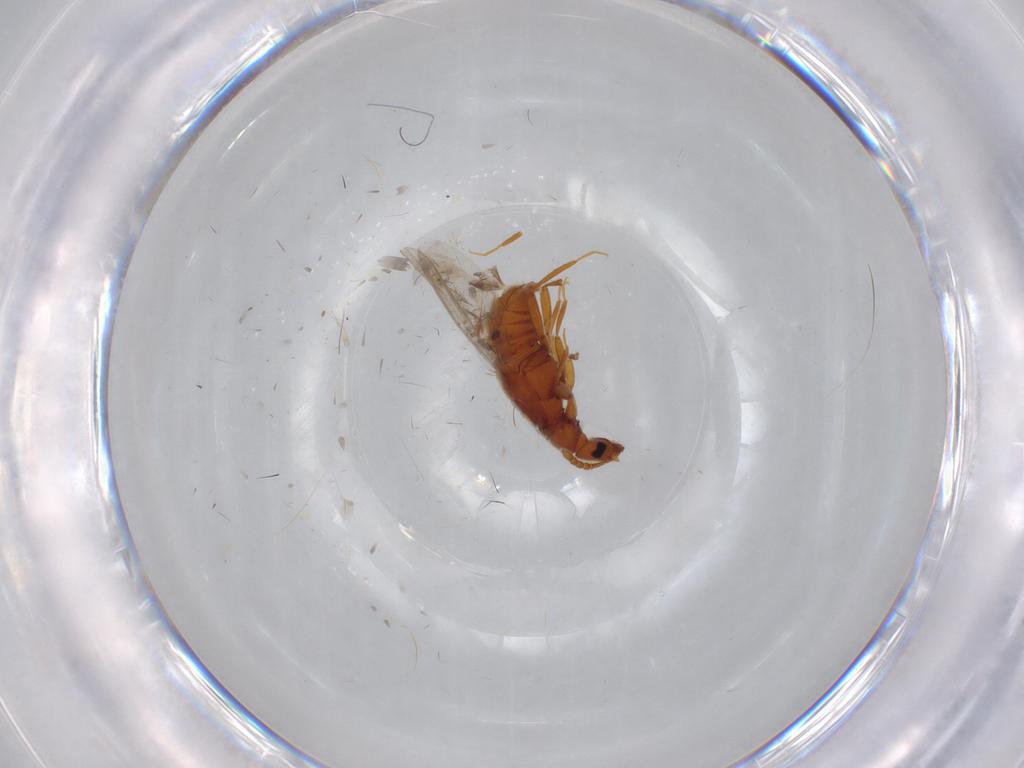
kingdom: Animalia
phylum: Arthropoda
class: Insecta
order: Coleoptera
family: Staphylinidae
